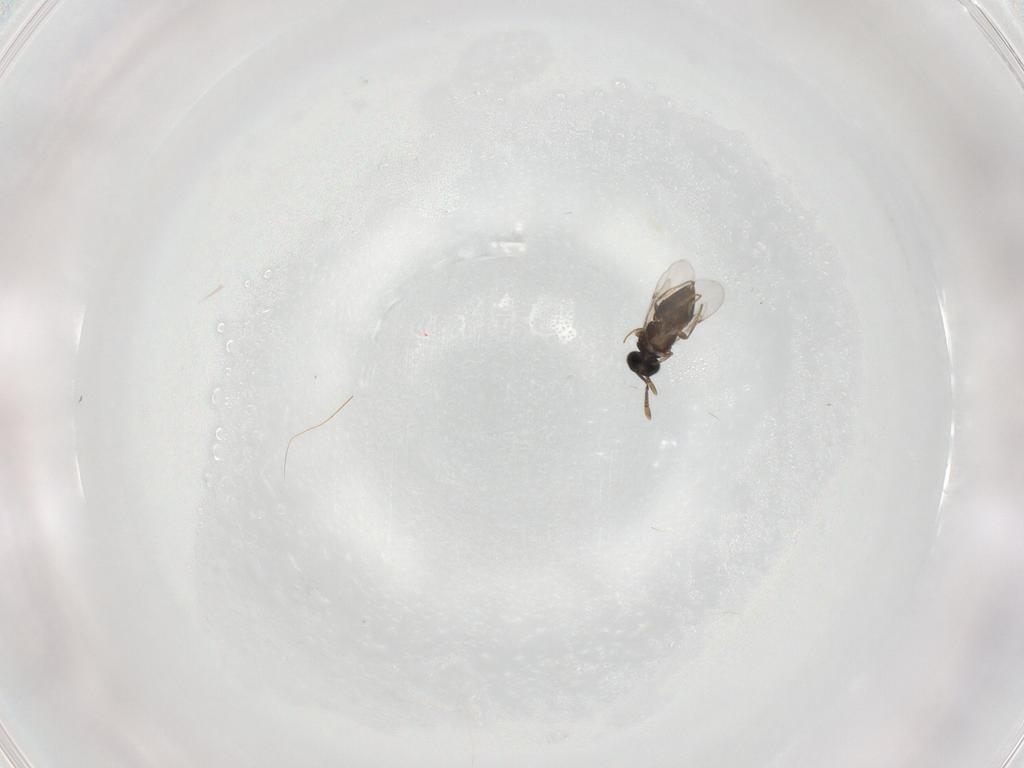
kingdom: Animalia
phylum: Arthropoda
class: Insecta
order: Hymenoptera
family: Encyrtidae
